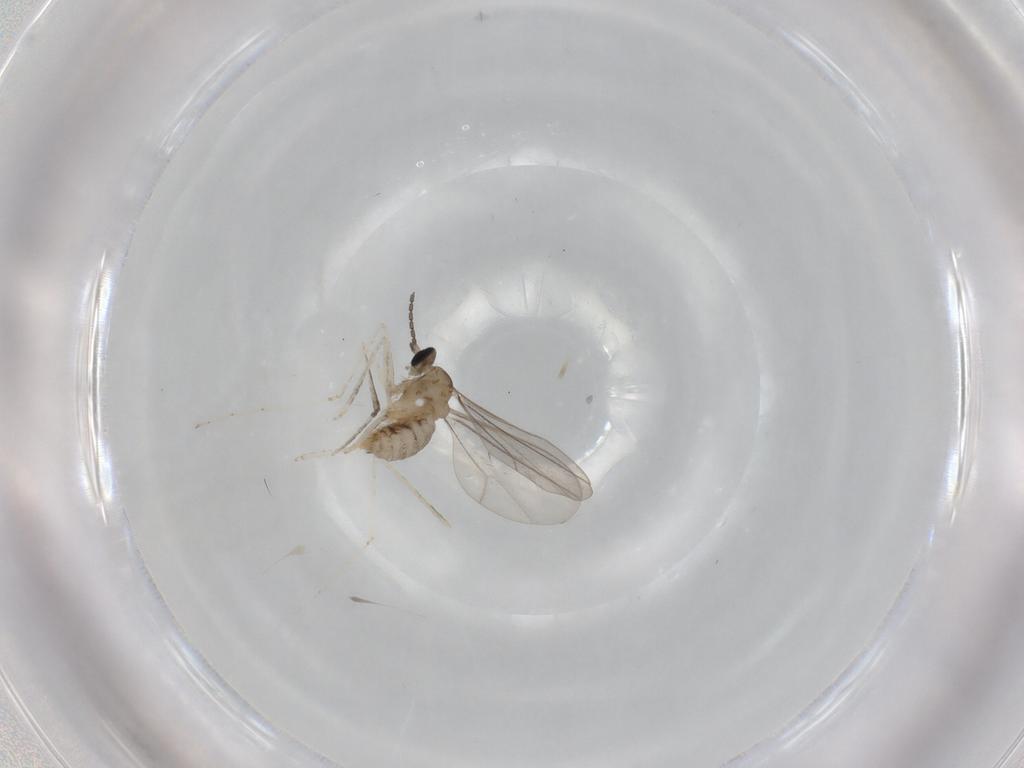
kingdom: Animalia
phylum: Arthropoda
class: Insecta
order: Diptera
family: Cecidomyiidae
